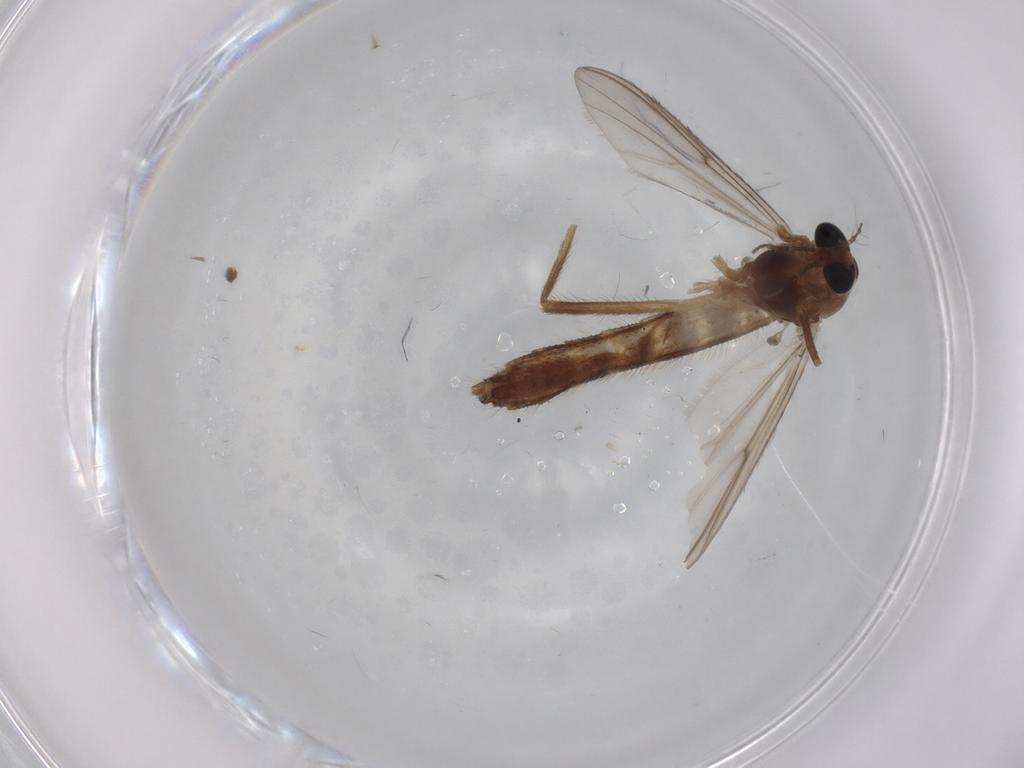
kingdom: Animalia
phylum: Arthropoda
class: Insecta
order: Diptera
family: Chironomidae
